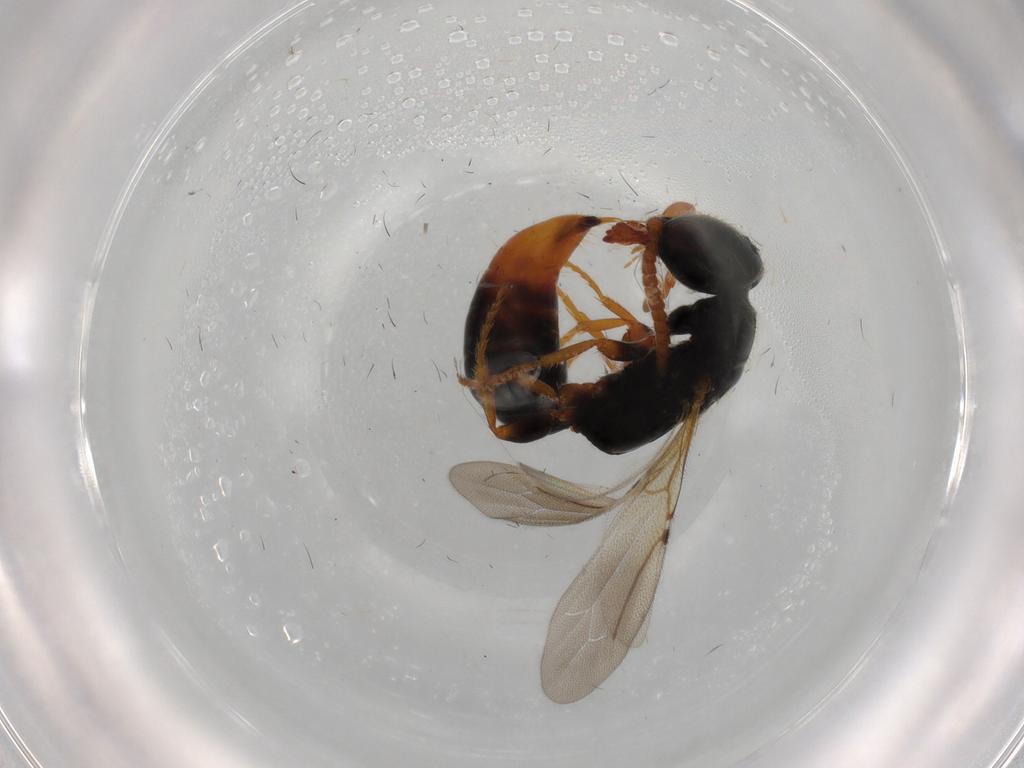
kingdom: Animalia
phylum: Arthropoda
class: Insecta
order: Hymenoptera
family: Bethylidae
